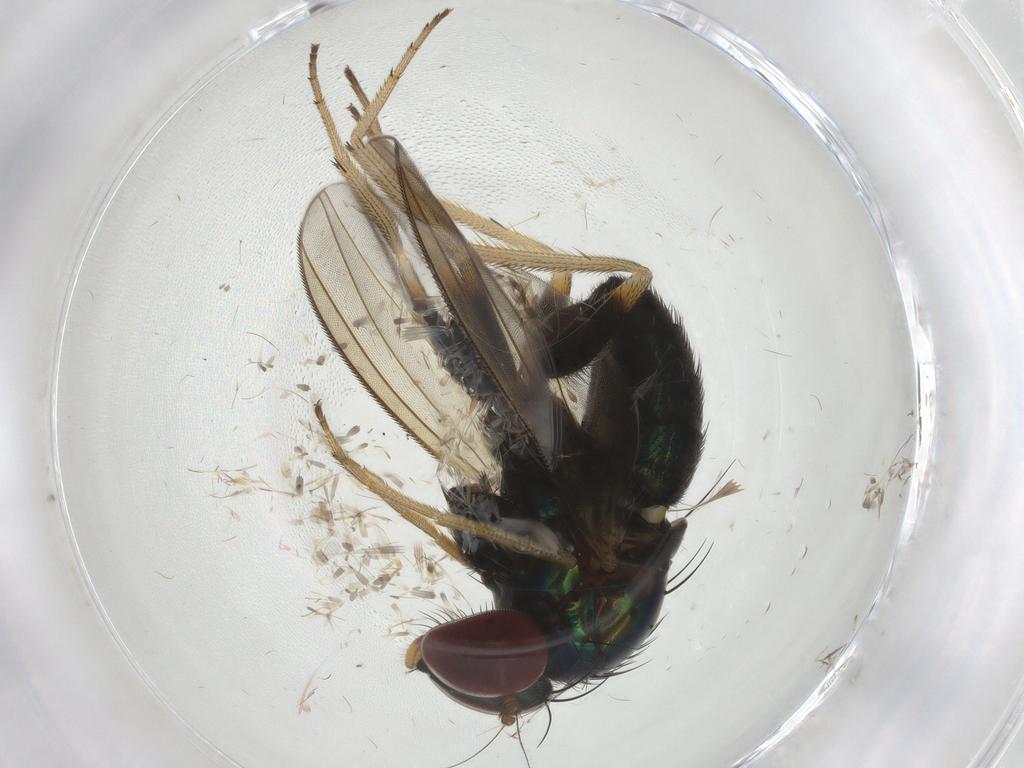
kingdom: Animalia
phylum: Arthropoda
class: Insecta
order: Diptera
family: Dolichopodidae
